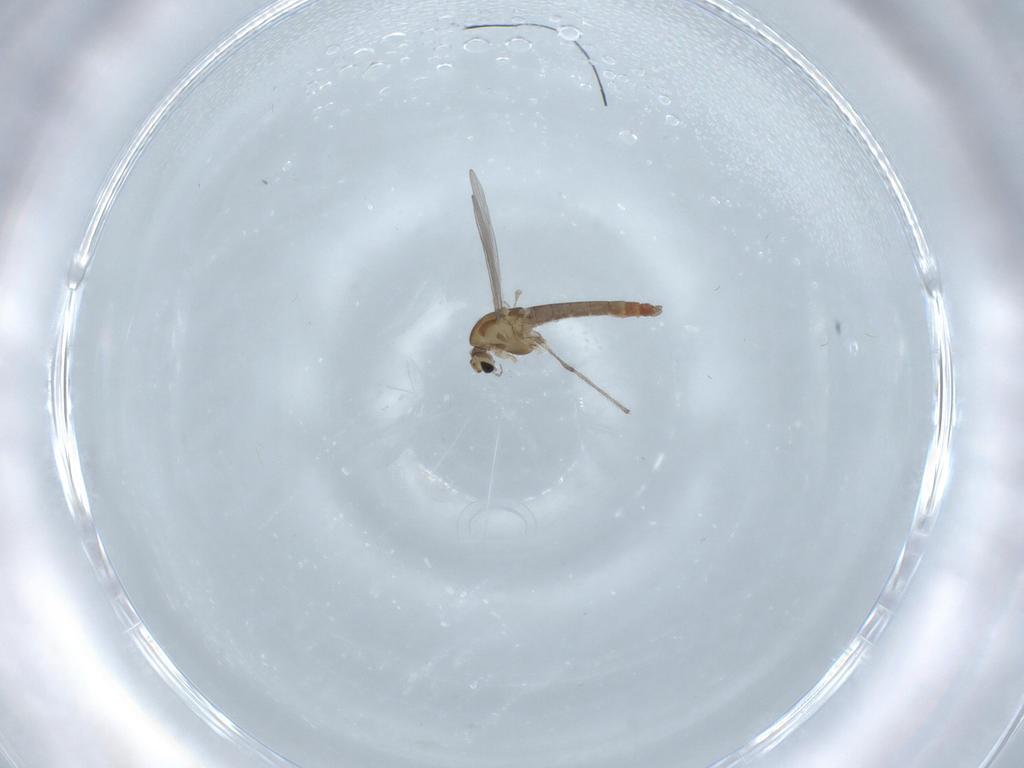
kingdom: Animalia
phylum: Arthropoda
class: Insecta
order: Diptera
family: Chironomidae
